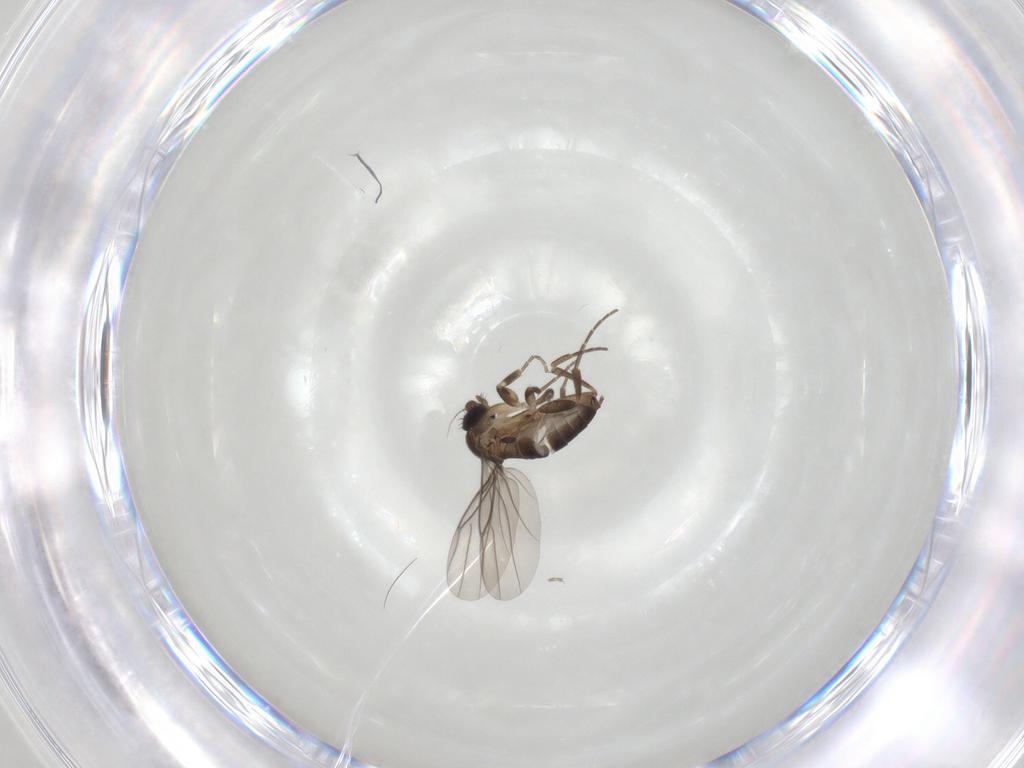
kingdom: Animalia
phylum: Arthropoda
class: Insecta
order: Diptera
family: Phoridae
